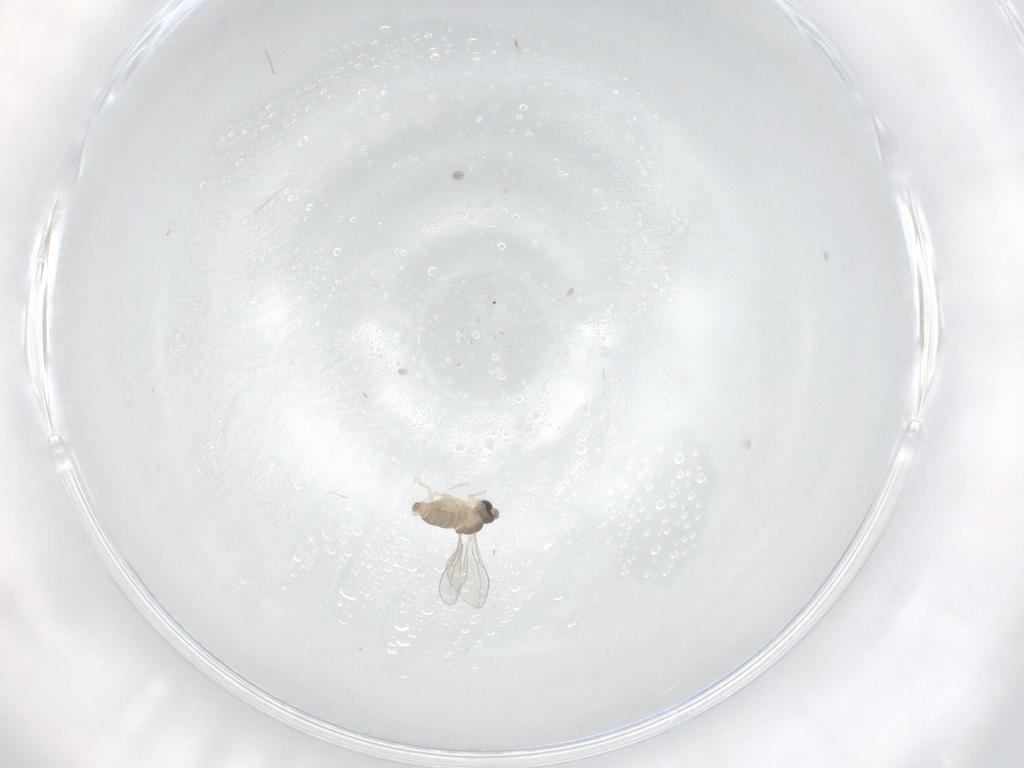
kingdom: Animalia
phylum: Arthropoda
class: Insecta
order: Diptera
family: Cecidomyiidae
